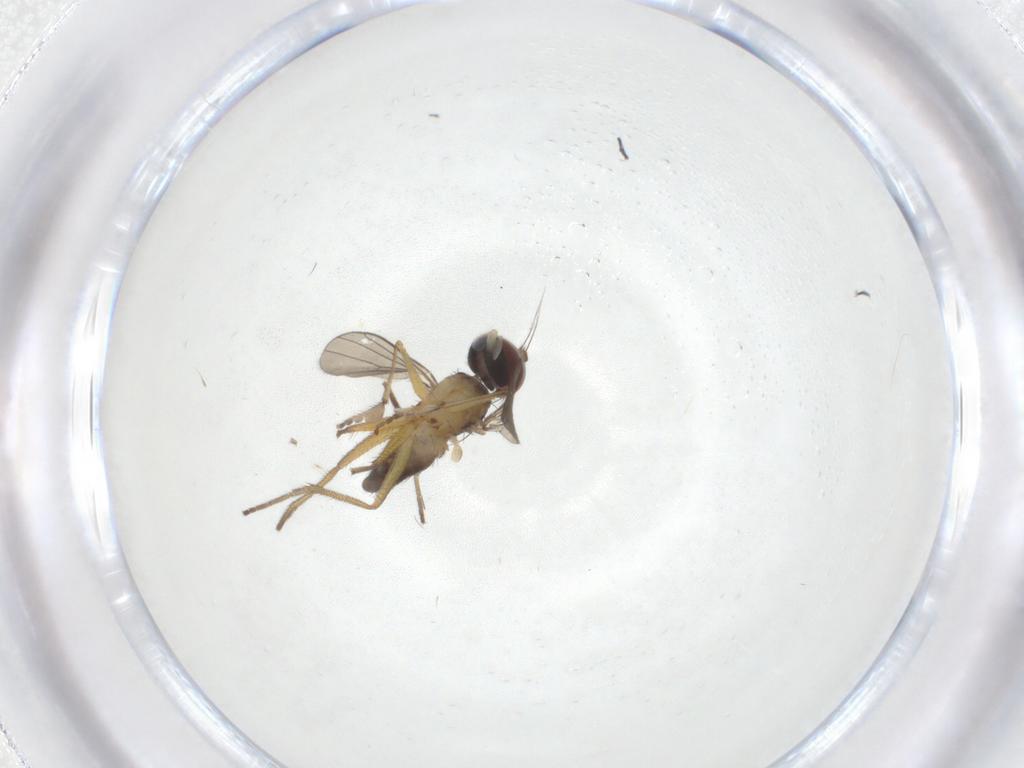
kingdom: Animalia
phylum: Arthropoda
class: Insecta
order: Diptera
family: Dolichopodidae
